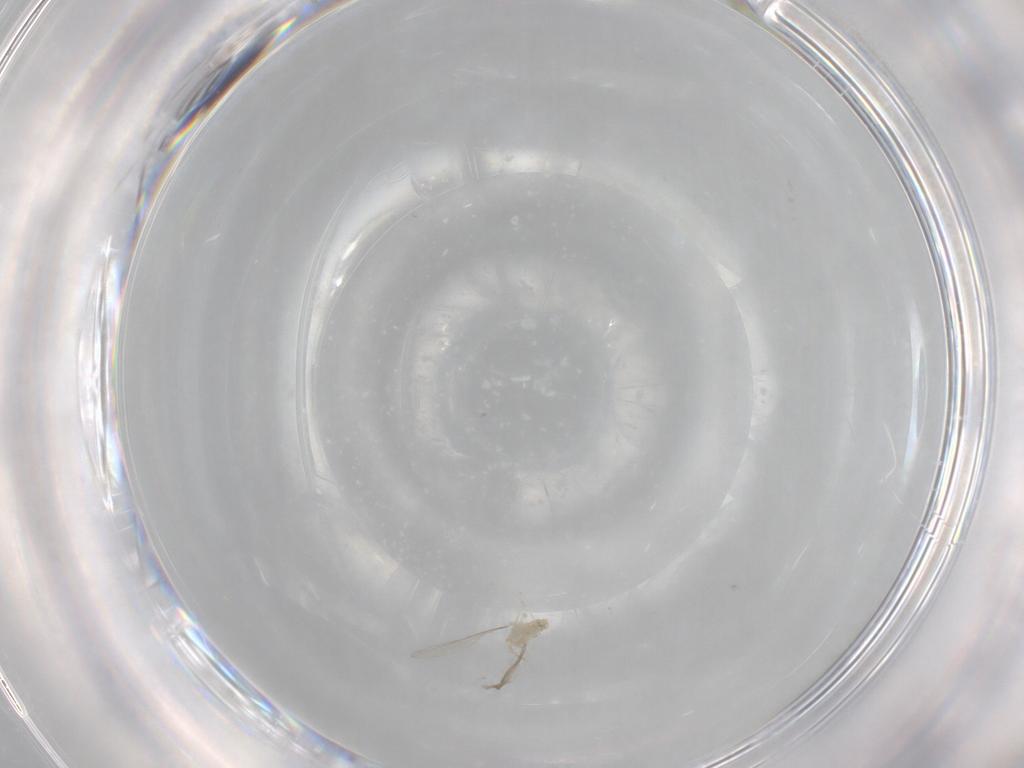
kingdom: Animalia
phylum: Arthropoda
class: Insecta
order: Diptera
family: Cecidomyiidae
